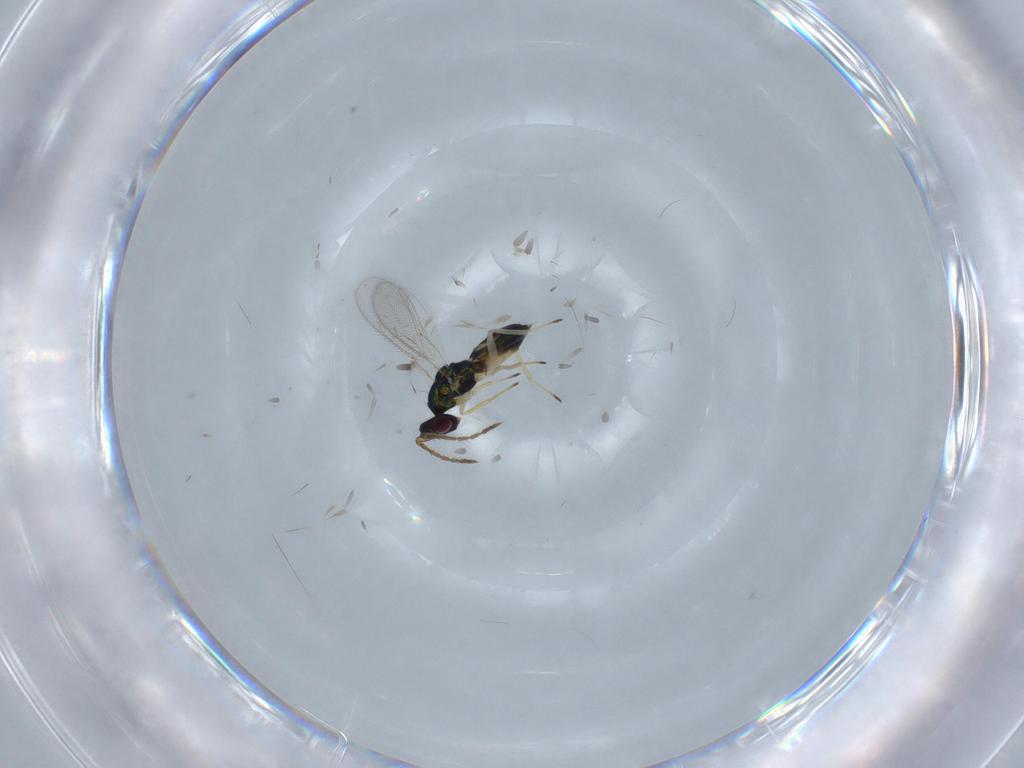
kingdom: Animalia
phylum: Arthropoda
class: Insecta
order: Hymenoptera
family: Eulophidae
